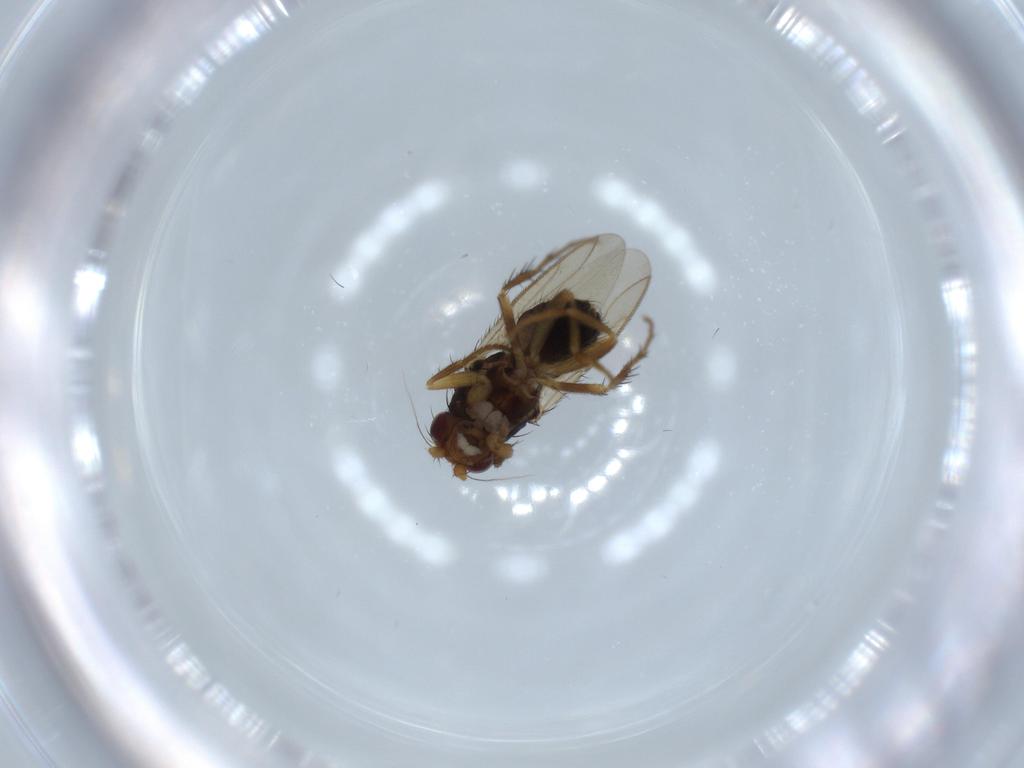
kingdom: Animalia
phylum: Arthropoda
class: Insecta
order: Diptera
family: Sphaeroceridae
